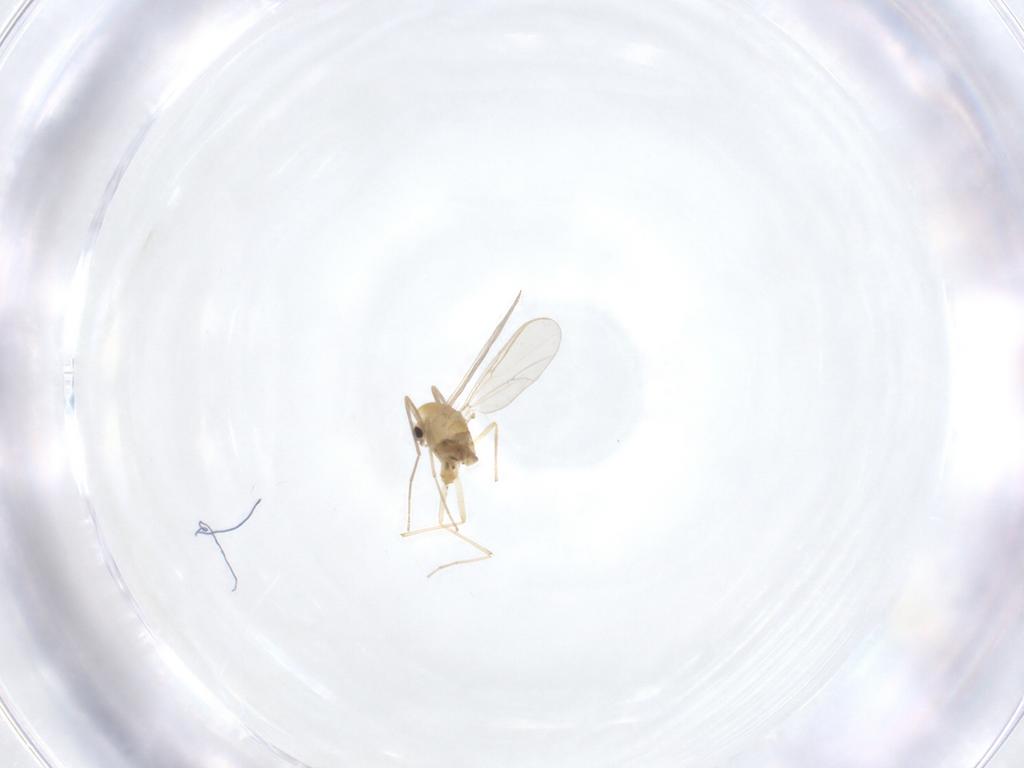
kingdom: Animalia
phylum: Arthropoda
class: Insecta
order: Diptera
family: Chironomidae
